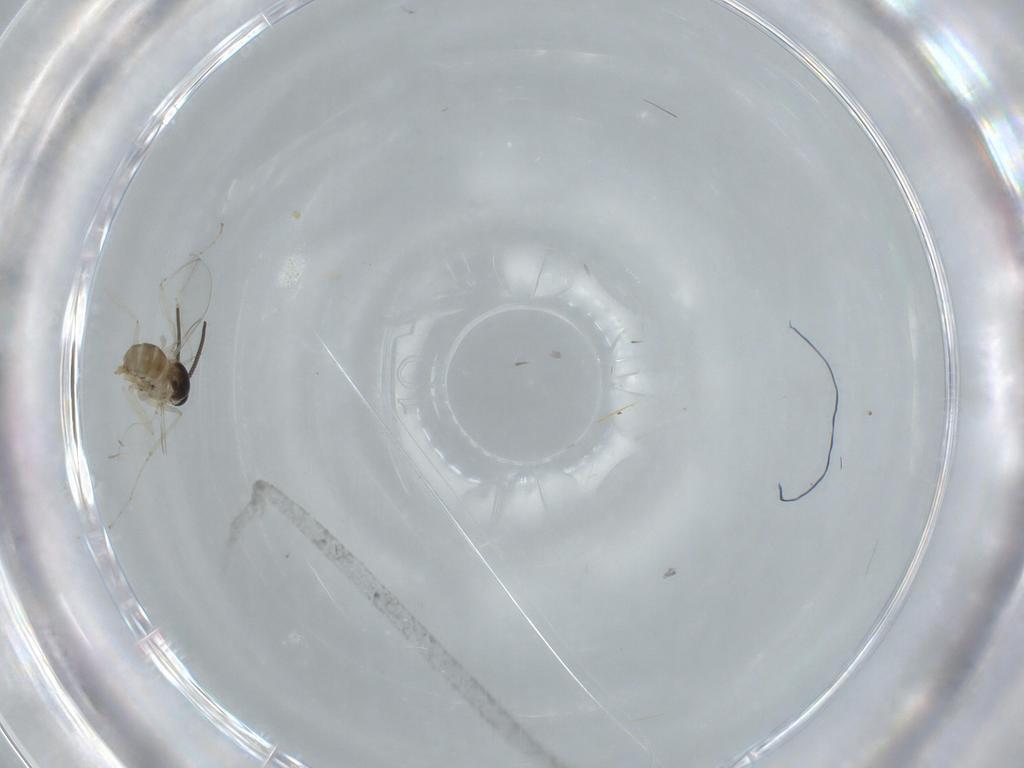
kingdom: Animalia
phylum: Arthropoda
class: Insecta
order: Diptera
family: Cecidomyiidae
